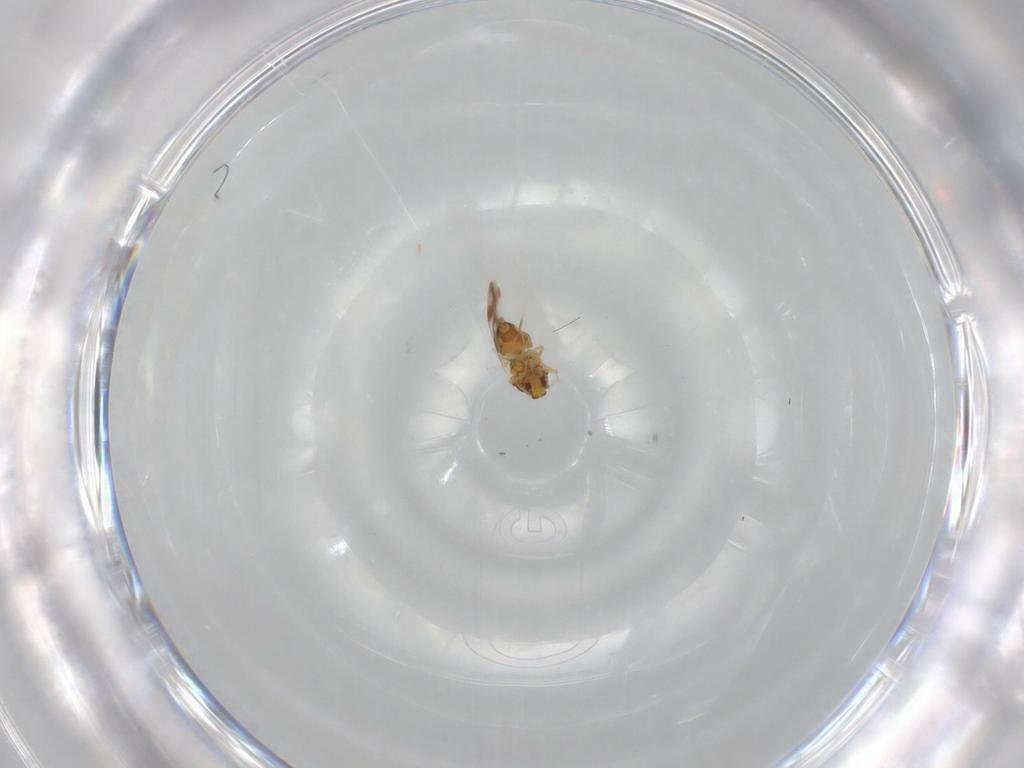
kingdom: Animalia
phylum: Arthropoda
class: Insecta
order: Hemiptera
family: Aleyrodidae
